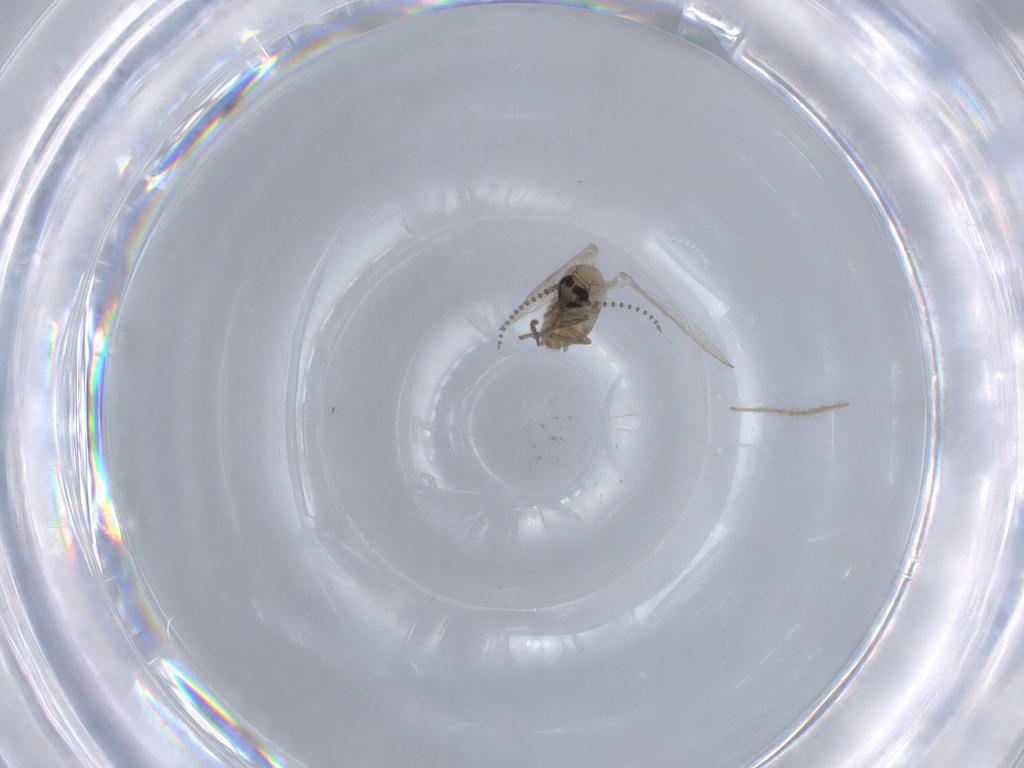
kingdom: Animalia
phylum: Arthropoda
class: Insecta
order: Diptera
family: Psychodidae
